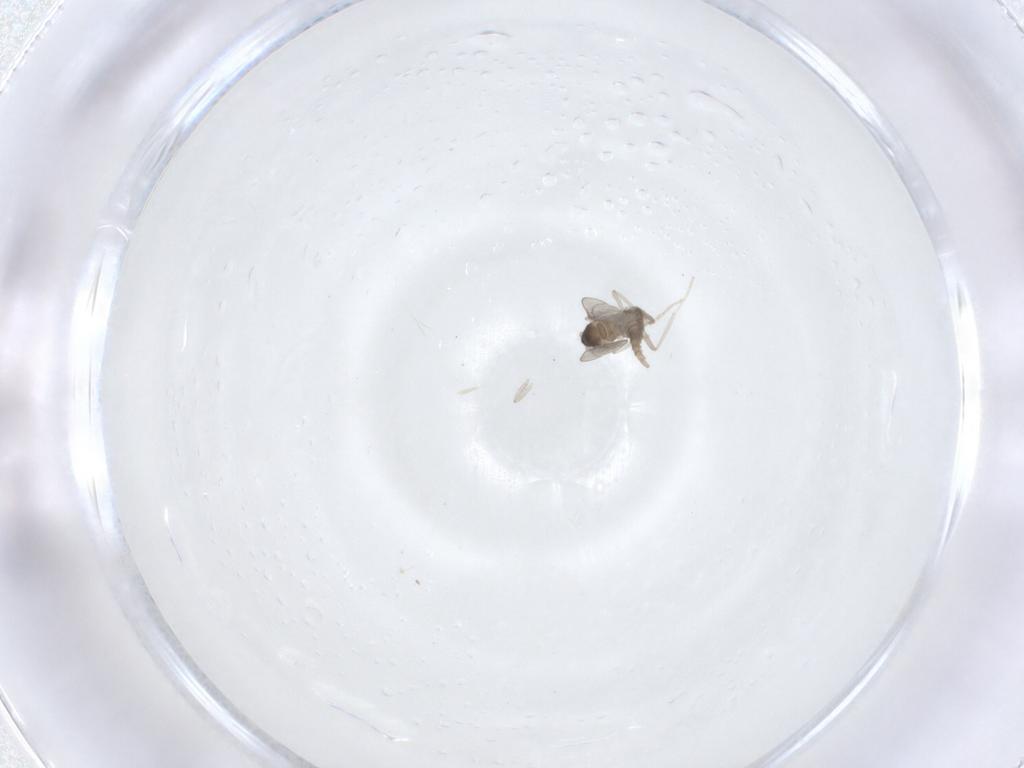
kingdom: Animalia
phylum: Arthropoda
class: Insecta
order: Diptera
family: Cecidomyiidae
